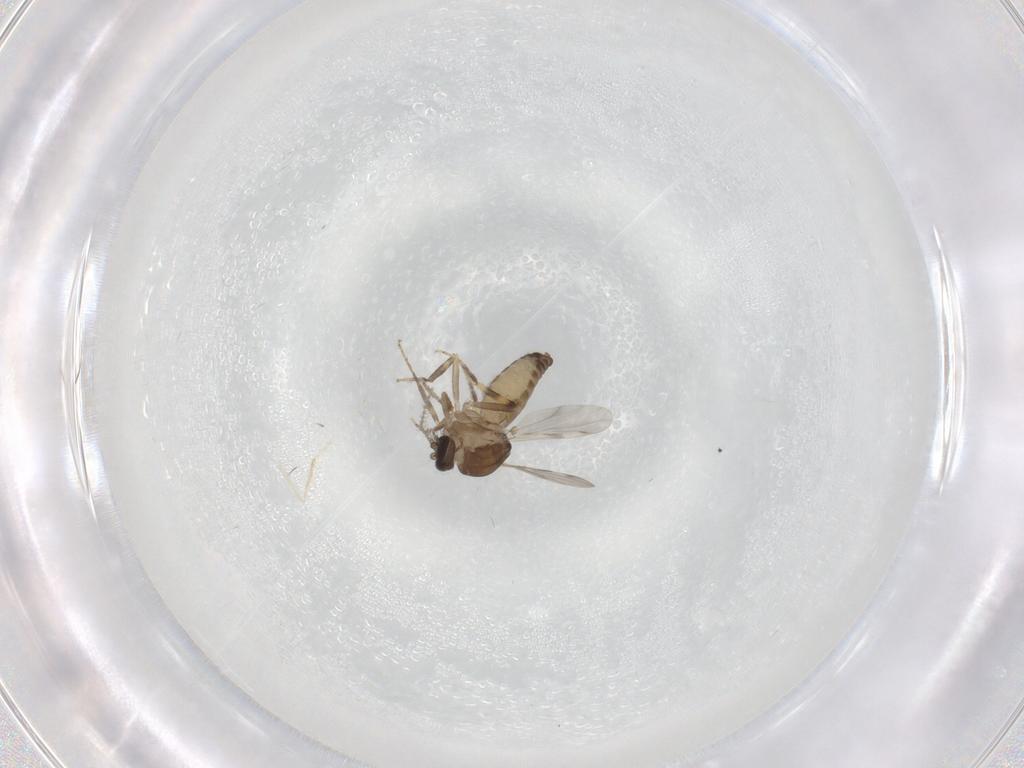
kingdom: Animalia
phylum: Arthropoda
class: Insecta
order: Diptera
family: Ceratopogonidae
